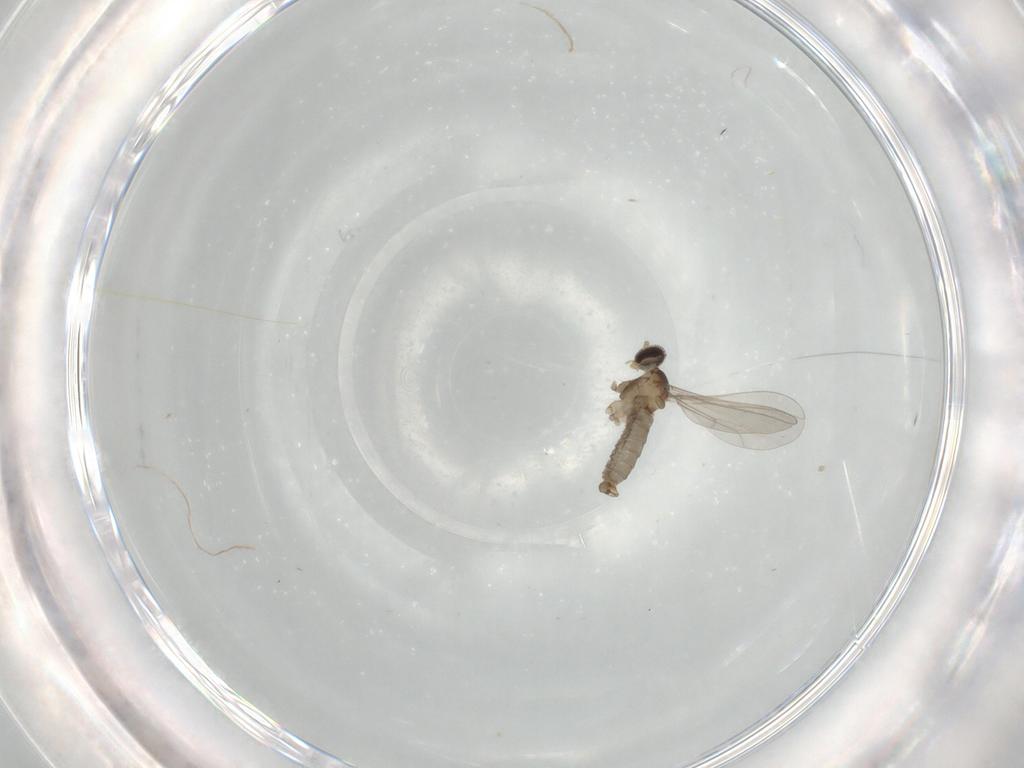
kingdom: Animalia
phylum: Arthropoda
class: Insecta
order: Diptera
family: Cecidomyiidae
